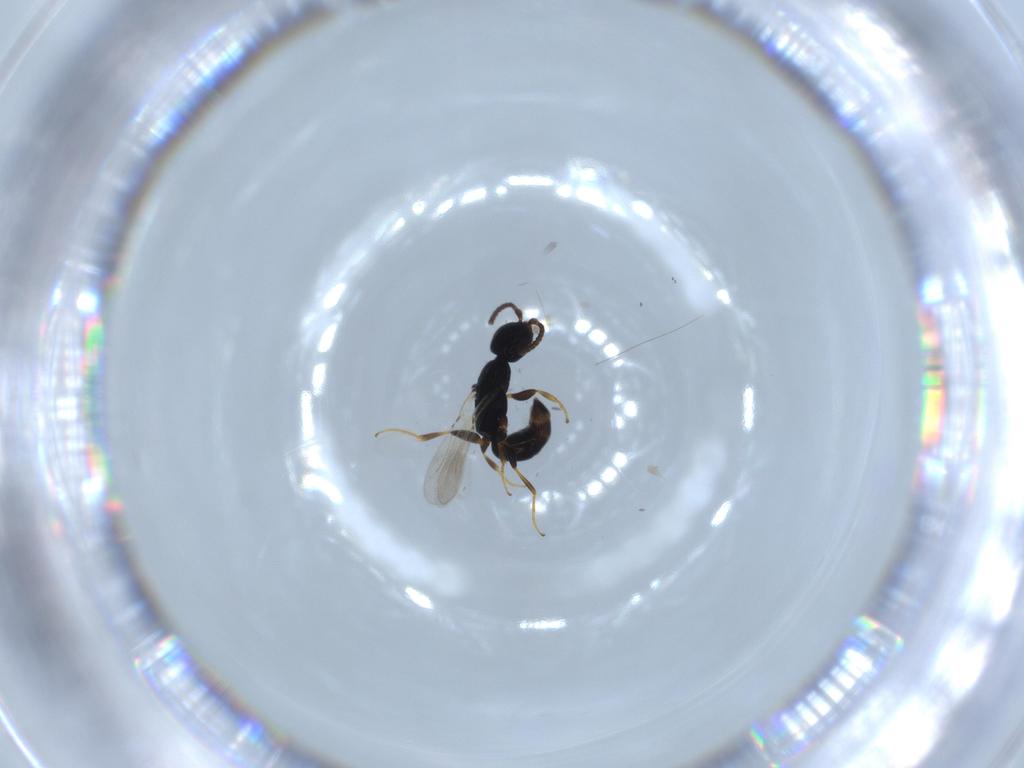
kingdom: Animalia
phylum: Arthropoda
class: Insecta
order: Hymenoptera
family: Bethylidae
